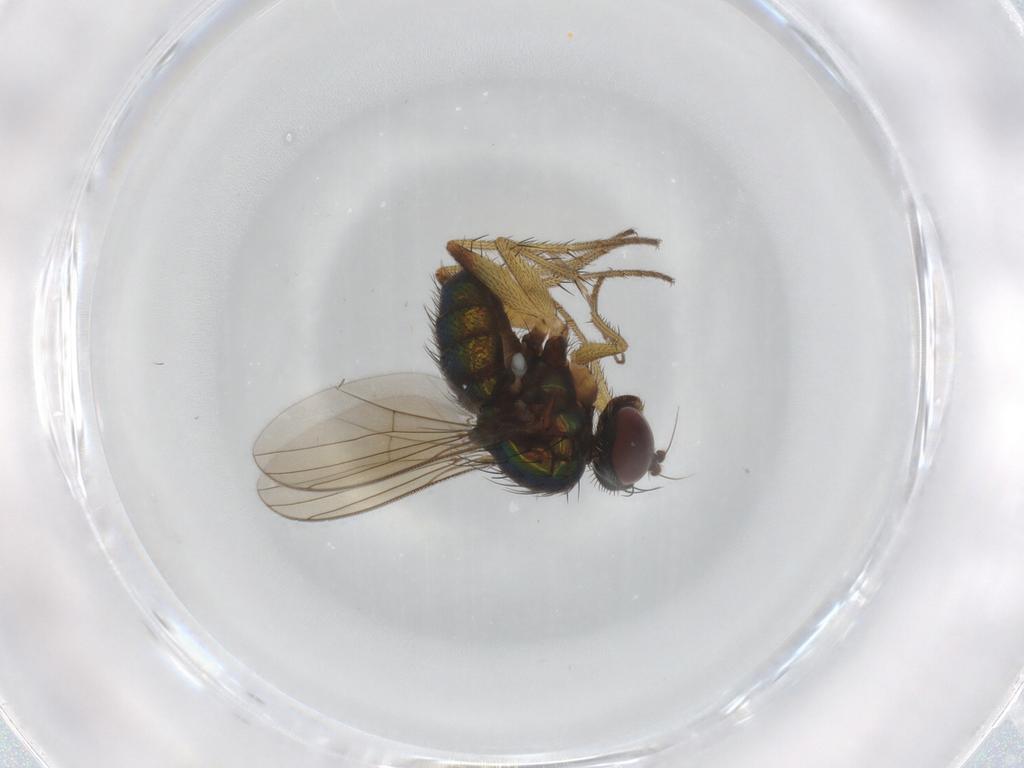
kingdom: Animalia
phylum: Arthropoda
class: Insecta
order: Diptera
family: Dolichopodidae
